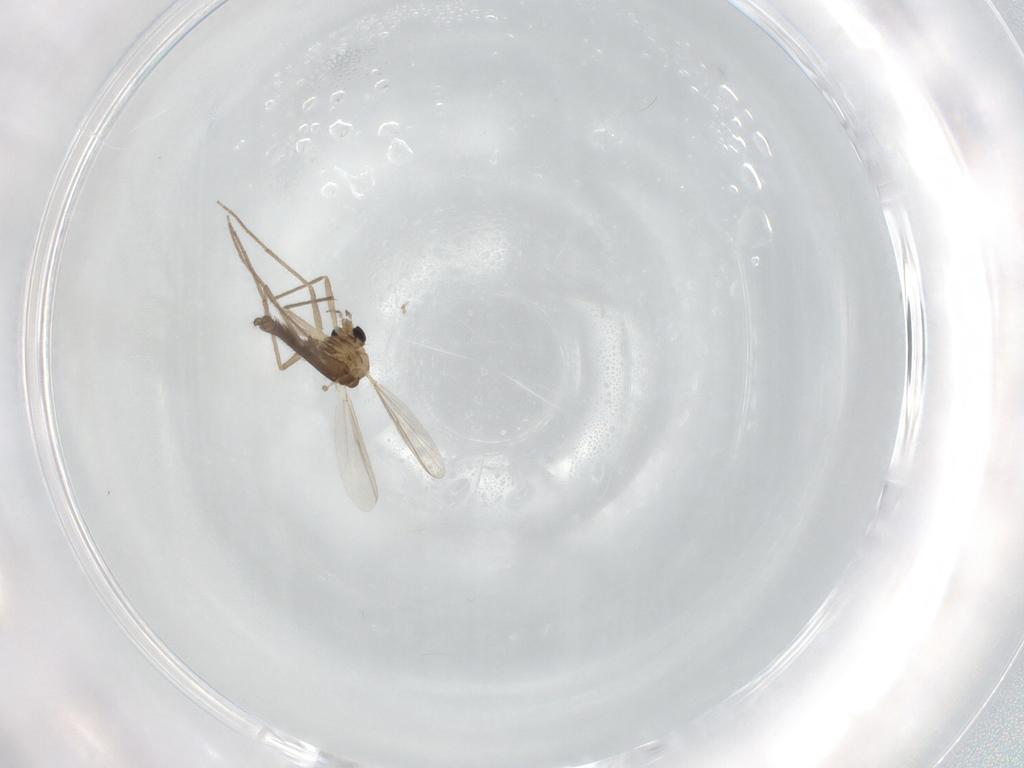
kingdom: Animalia
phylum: Arthropoda
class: Insecta
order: Diptera
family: Chironomidae
